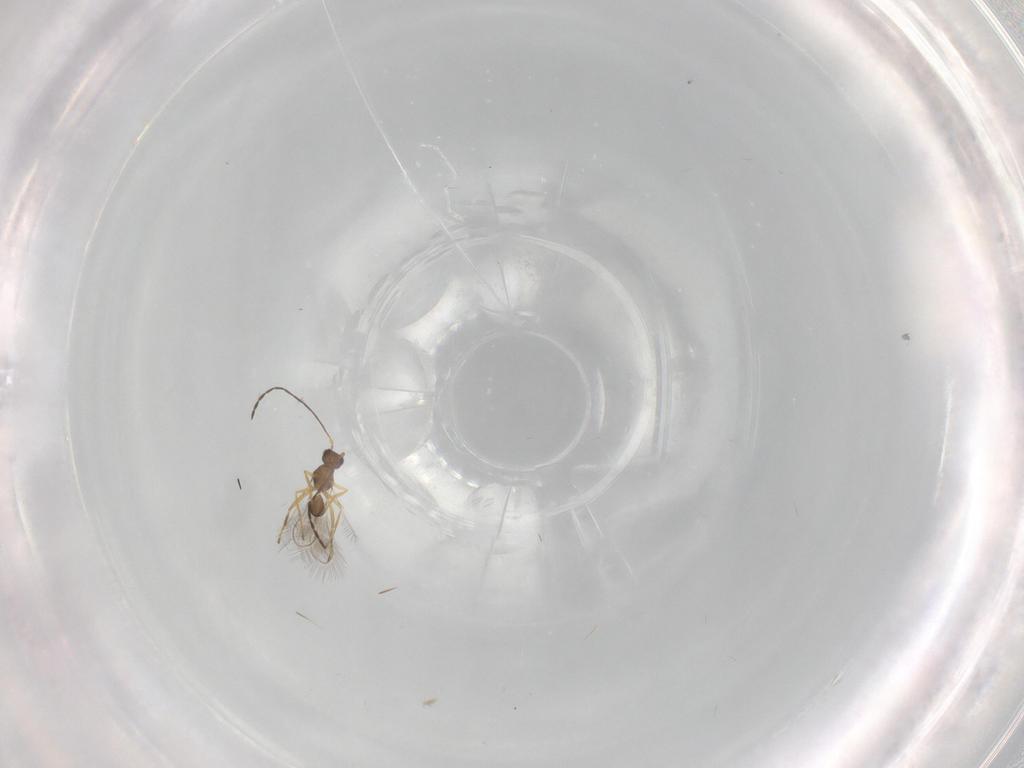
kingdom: Animalia
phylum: Arthropoda
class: Insecta
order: Hymenoptera
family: Mymaridae
